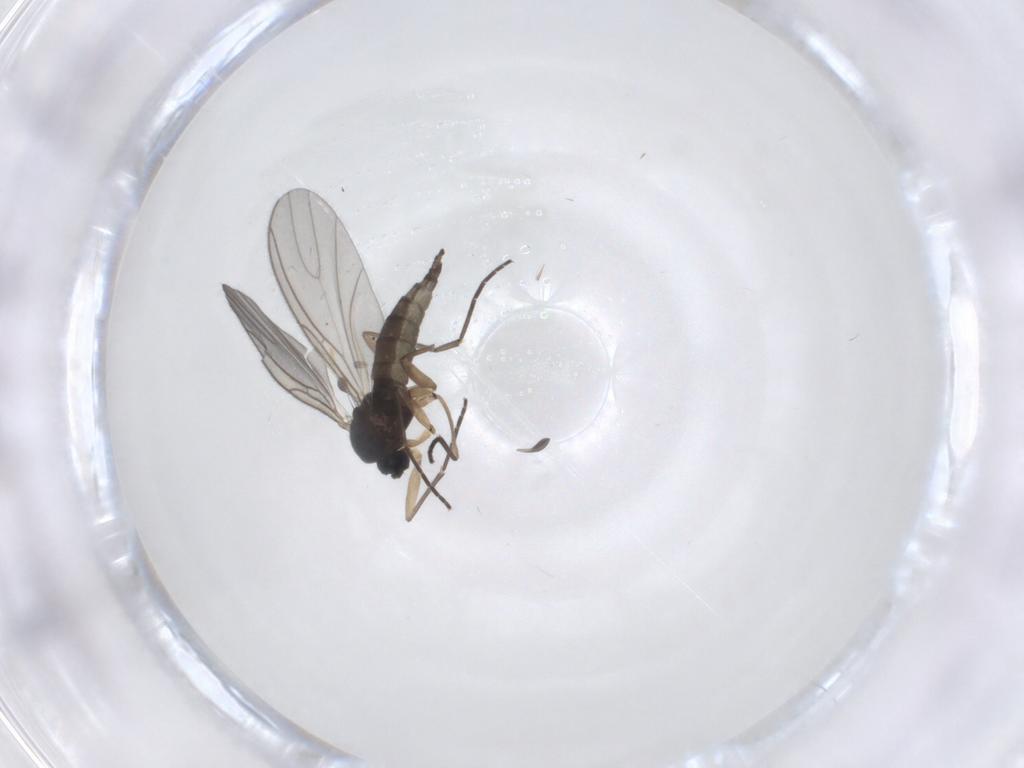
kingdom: Animalia
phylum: Arthropoda
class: Insecta
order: Diptera
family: Sciaridae
